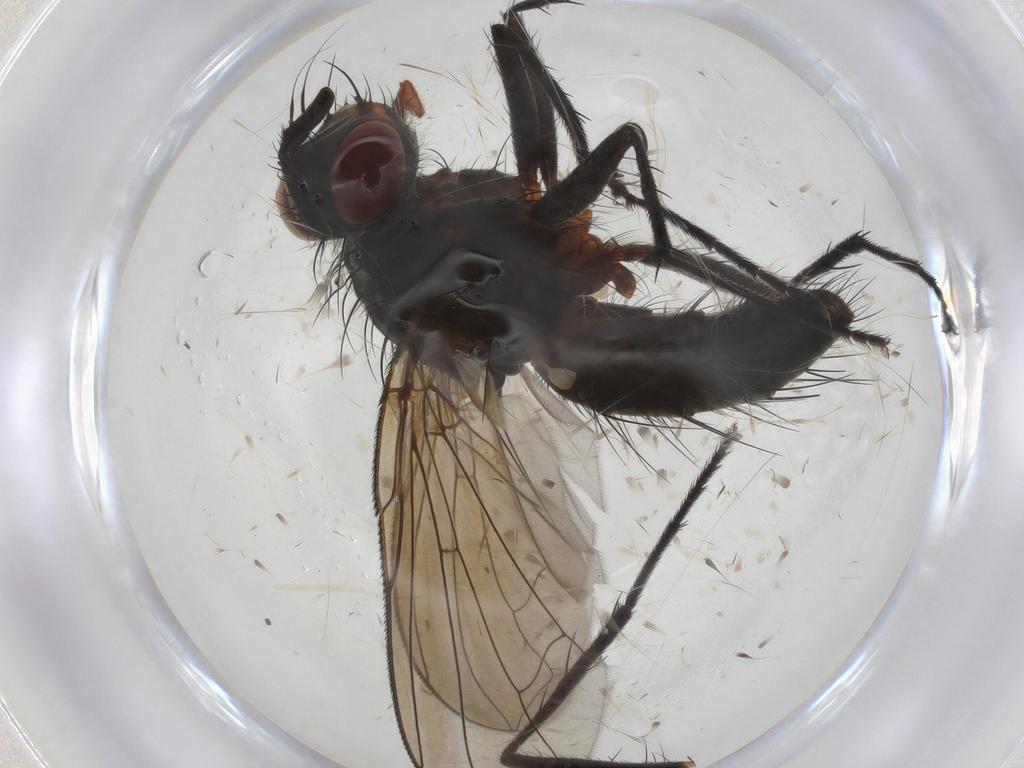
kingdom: Animalia
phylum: Arthropoda
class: Insecta
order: Diptera
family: Tachinidae
